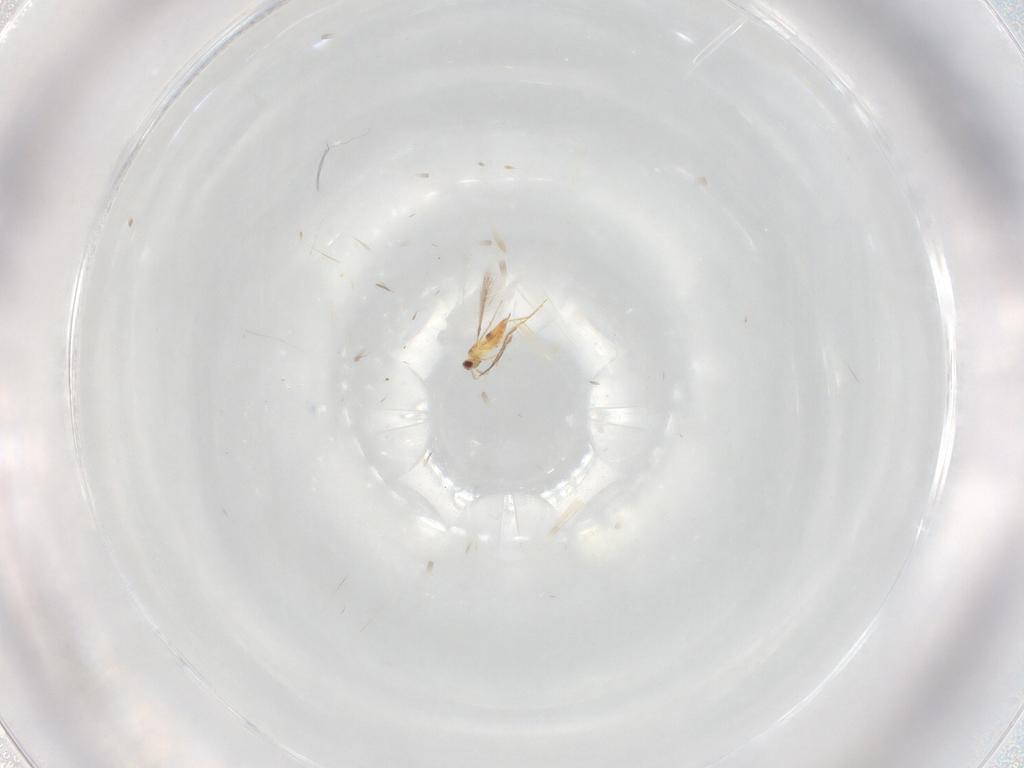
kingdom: Animalia
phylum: Arthropoda
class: Insecta
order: Hymenoptera
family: Mymaridae
